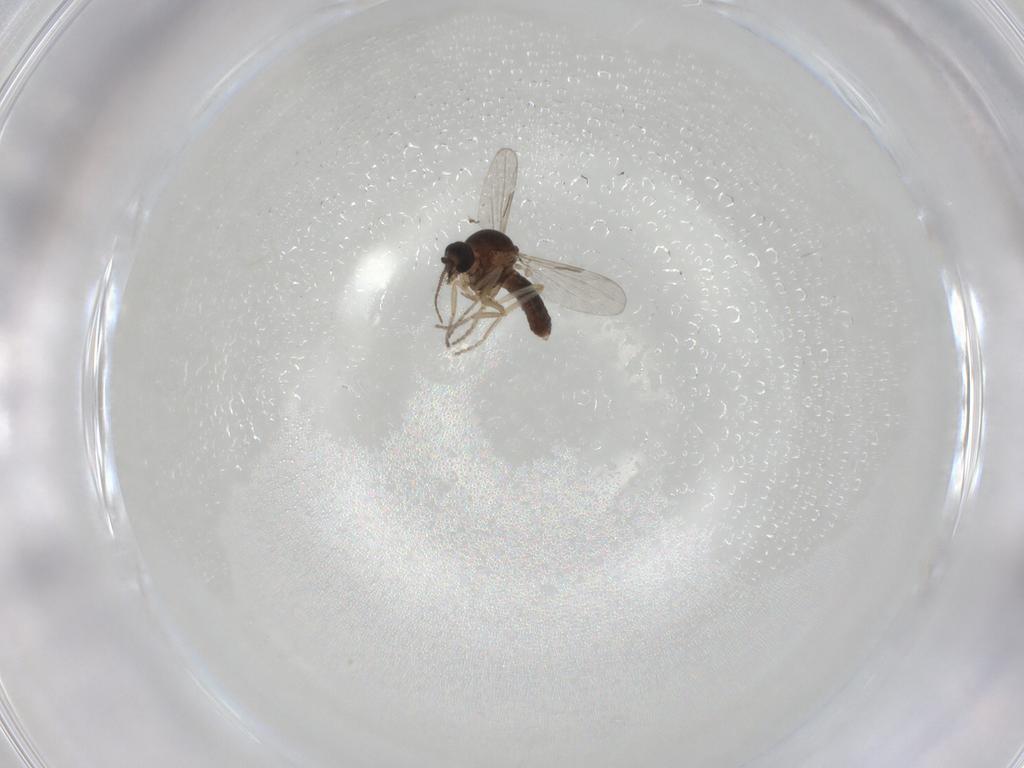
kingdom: Animalia
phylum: Arthropoda
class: Insecta
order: Diptera
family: Ceratopogonidae
